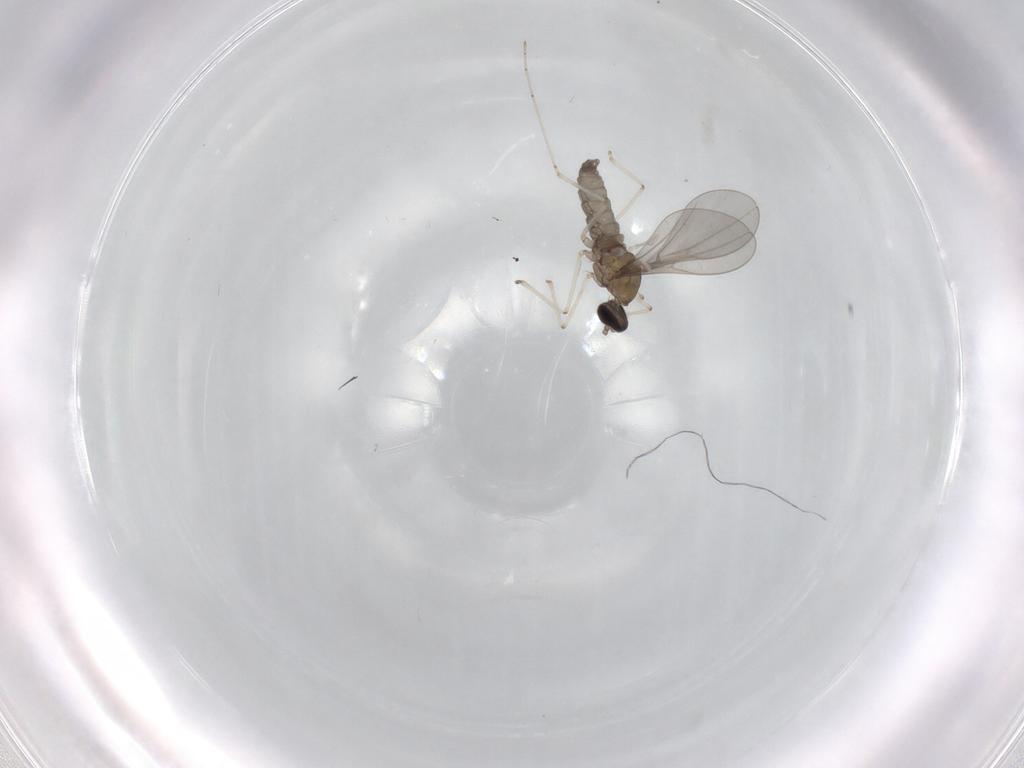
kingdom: Animalia
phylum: Arthropoda
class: Insecta
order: Diptera
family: Cecidomyiidae
